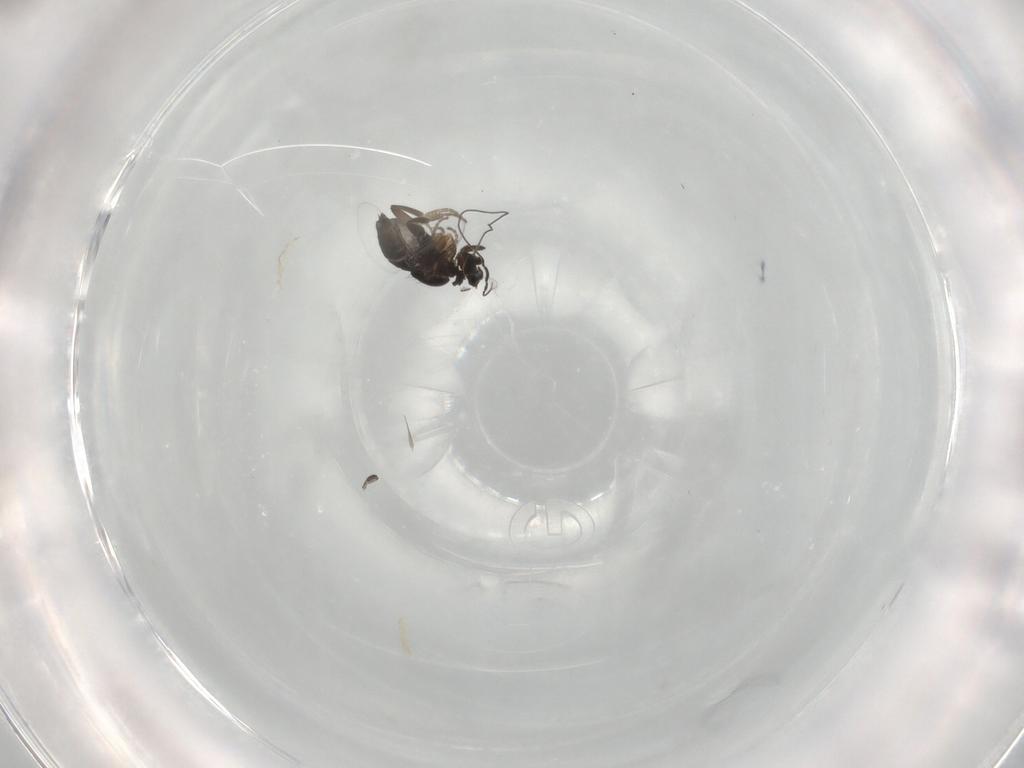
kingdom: Animalia
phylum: Arthropoda
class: Insecta
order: Diptera
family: Phoridae
